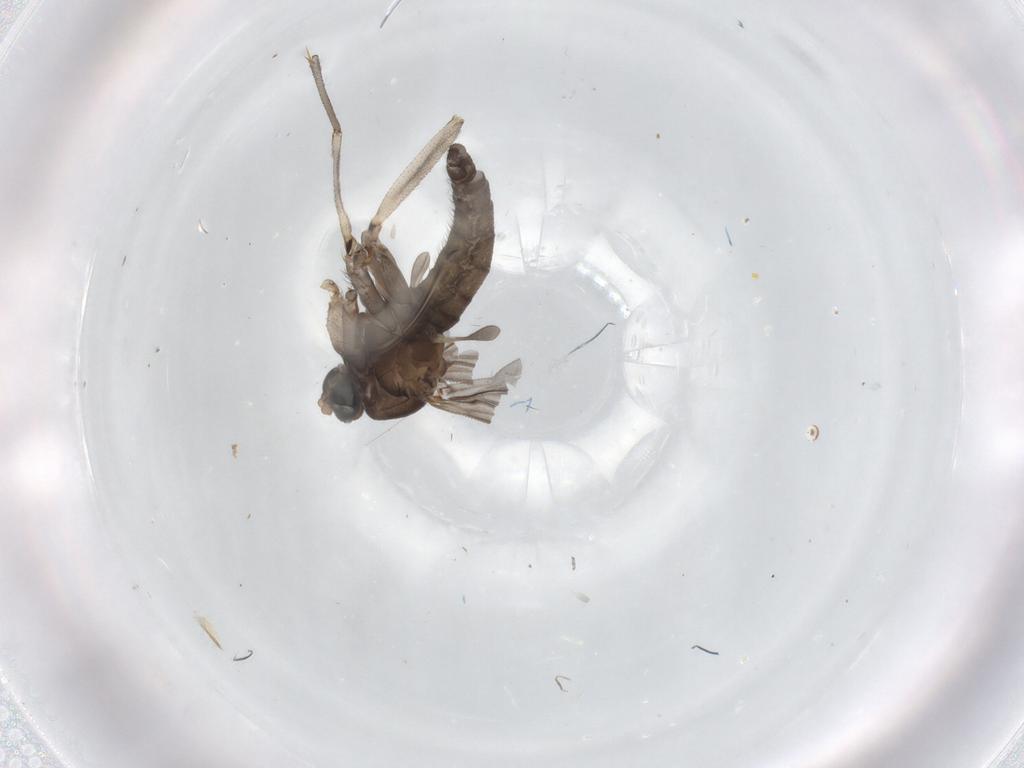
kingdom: Animalia
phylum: Arthropoda
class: Insecta
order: Diptera
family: Sciaridae
